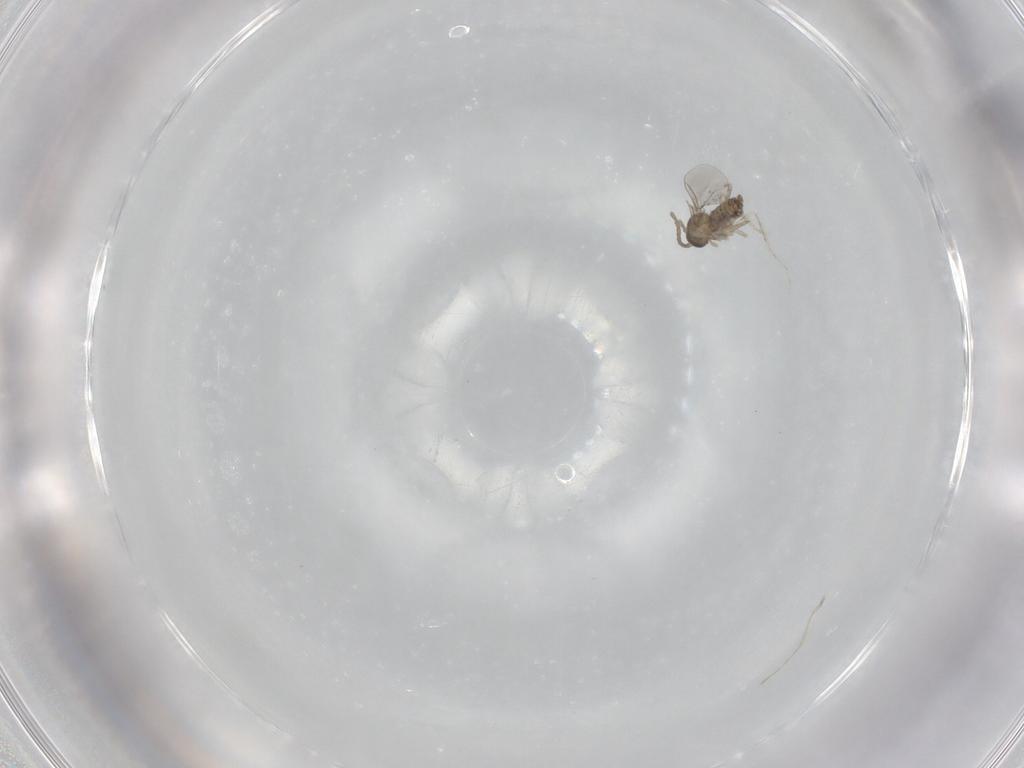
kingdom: Animalia
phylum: Arthropoda
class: Insecta
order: Diptera
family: Cecidomyiidae
